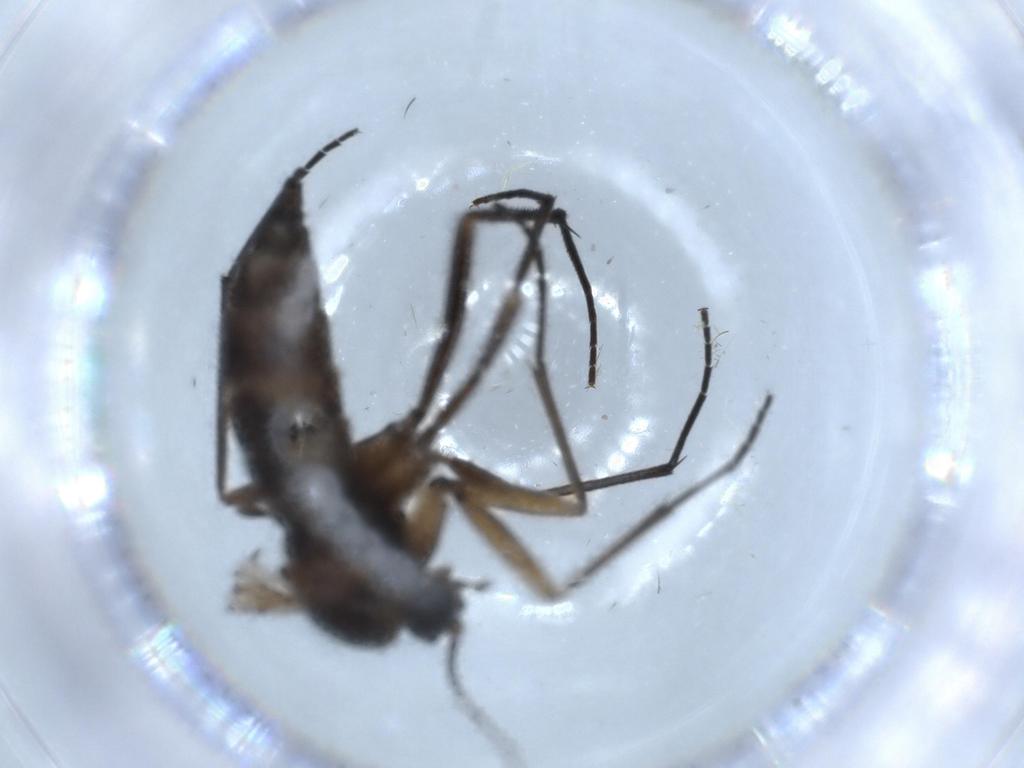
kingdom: Animalia
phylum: Arthropoda
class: Insecta
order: Diptera
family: Sciaridae
